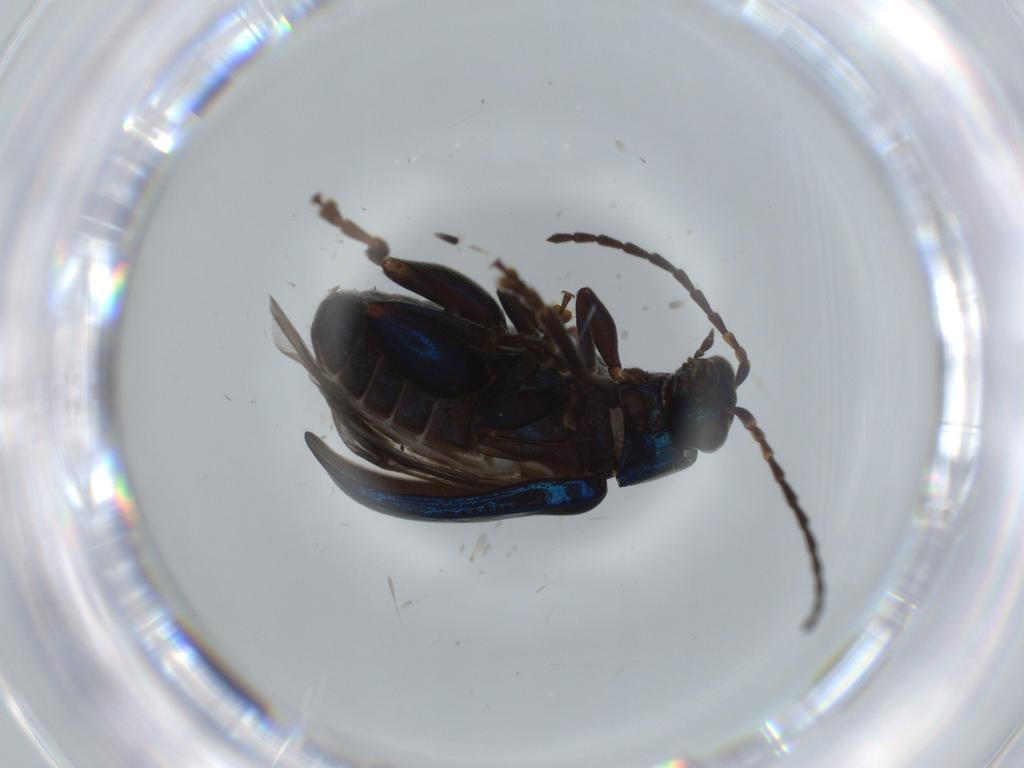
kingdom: Animalia
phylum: Arthropoda
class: Insecta
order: Coleoptera
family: Chrysomelidae
